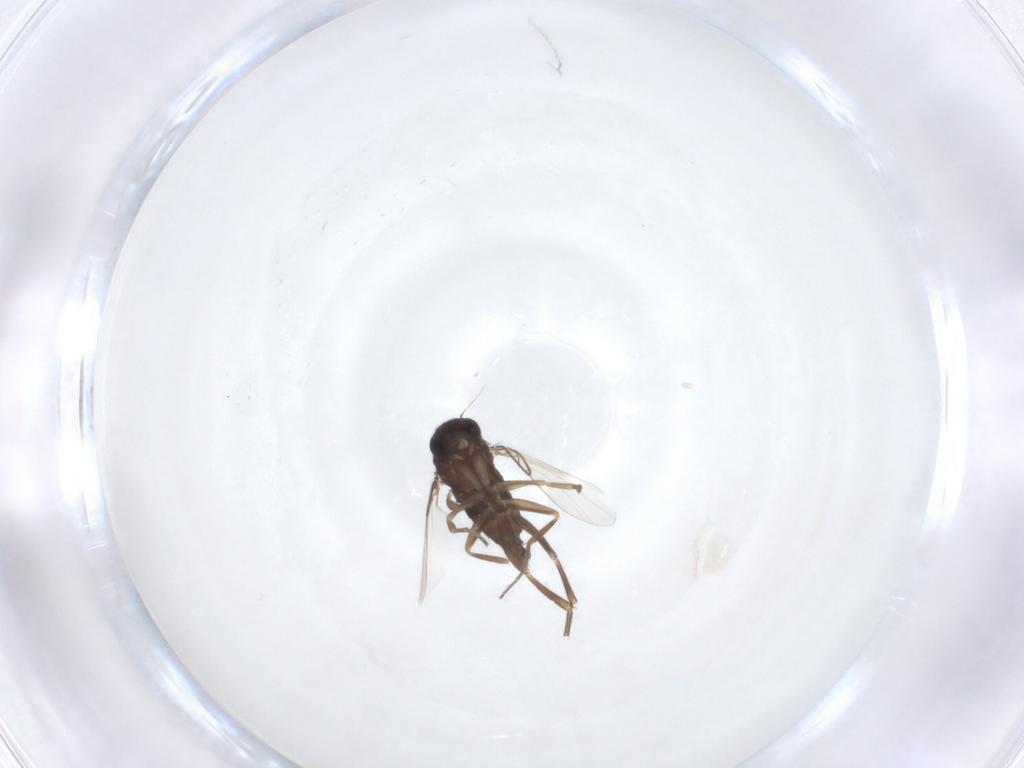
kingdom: Animalia
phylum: Arthropoda
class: Insecta
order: Diptera
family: Phoridae
